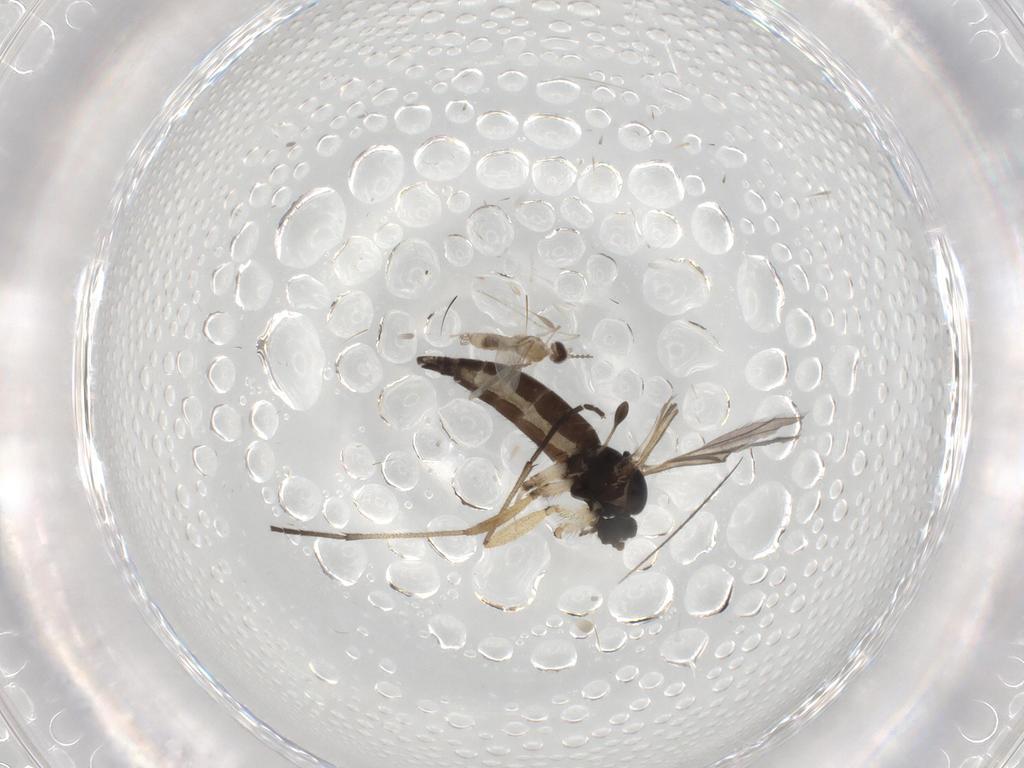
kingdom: Animalia
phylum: Arthropoda
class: Insecta
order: Diptera
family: Sciaridae
